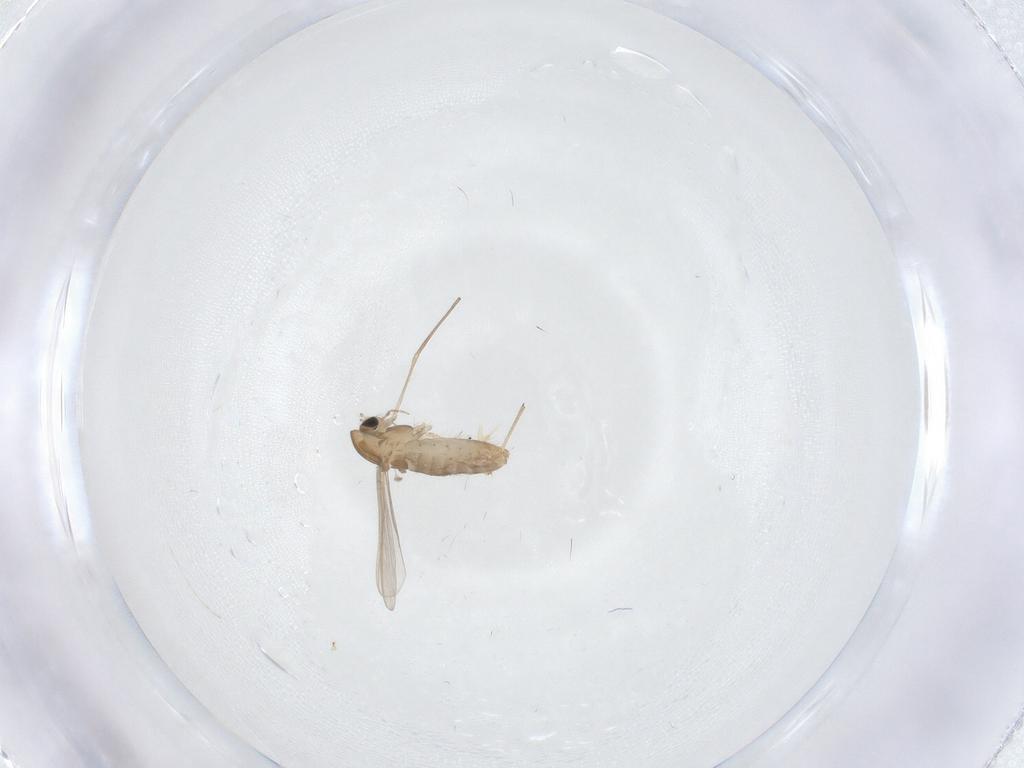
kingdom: Animalia
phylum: Arthropoda
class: Insecta
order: Diptera
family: Chironomidae
